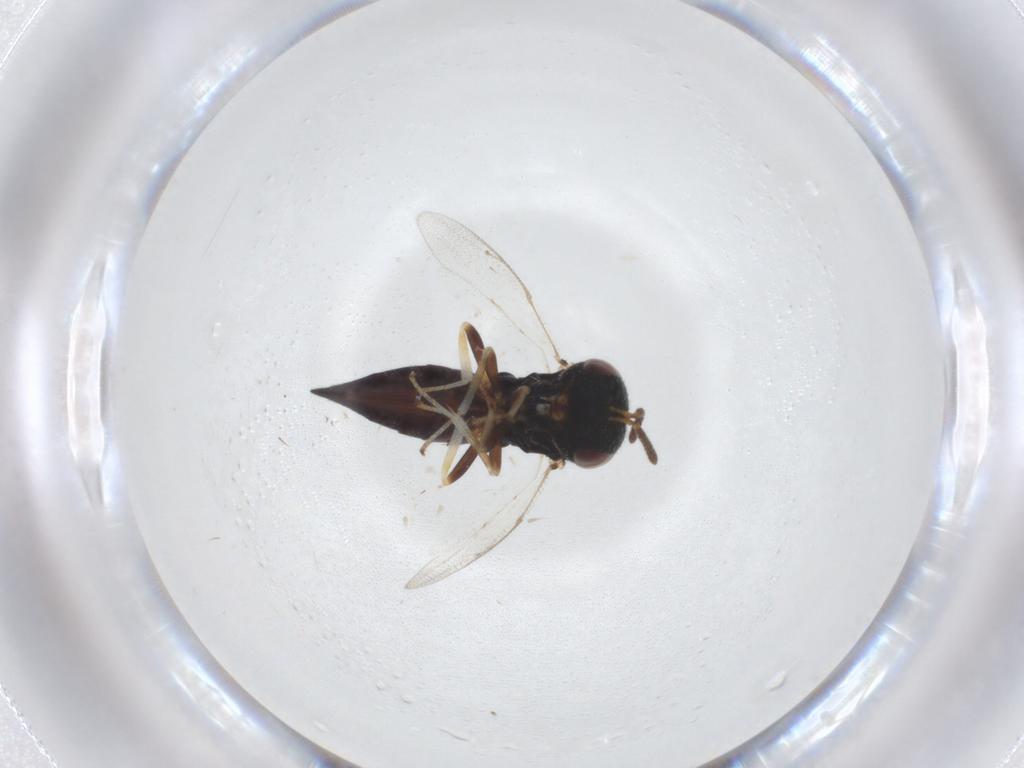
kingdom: Animalia
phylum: Arthropoda
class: Insecta
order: Hymenoptera
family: Pteromalidae
